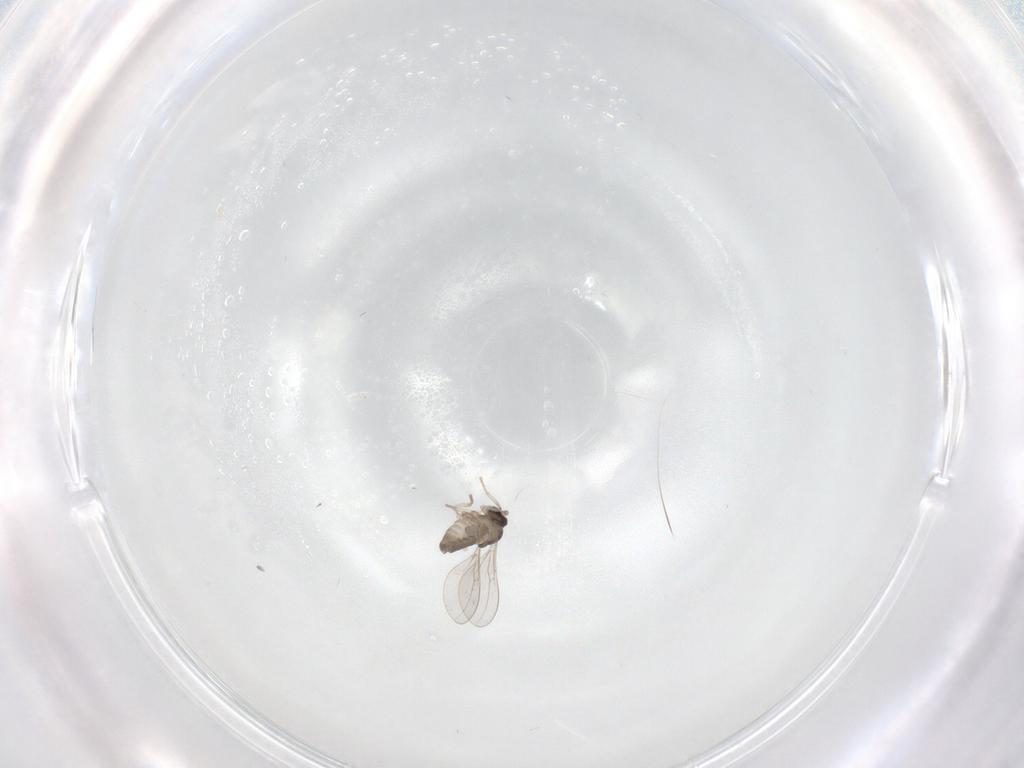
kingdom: Animalia
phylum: Arthropoda
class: Insecta
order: Diptera
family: Cecidomyiidae
